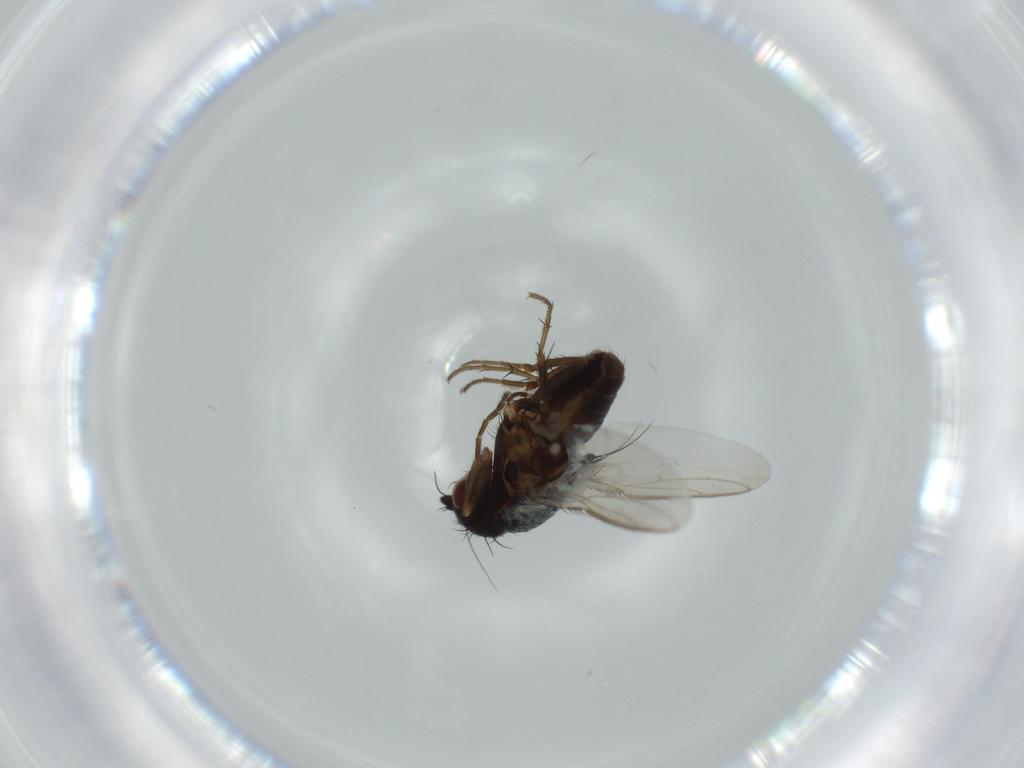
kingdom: Animalia
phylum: Arthropoda
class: Insecta
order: Diptera
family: Sphaeroceridae
